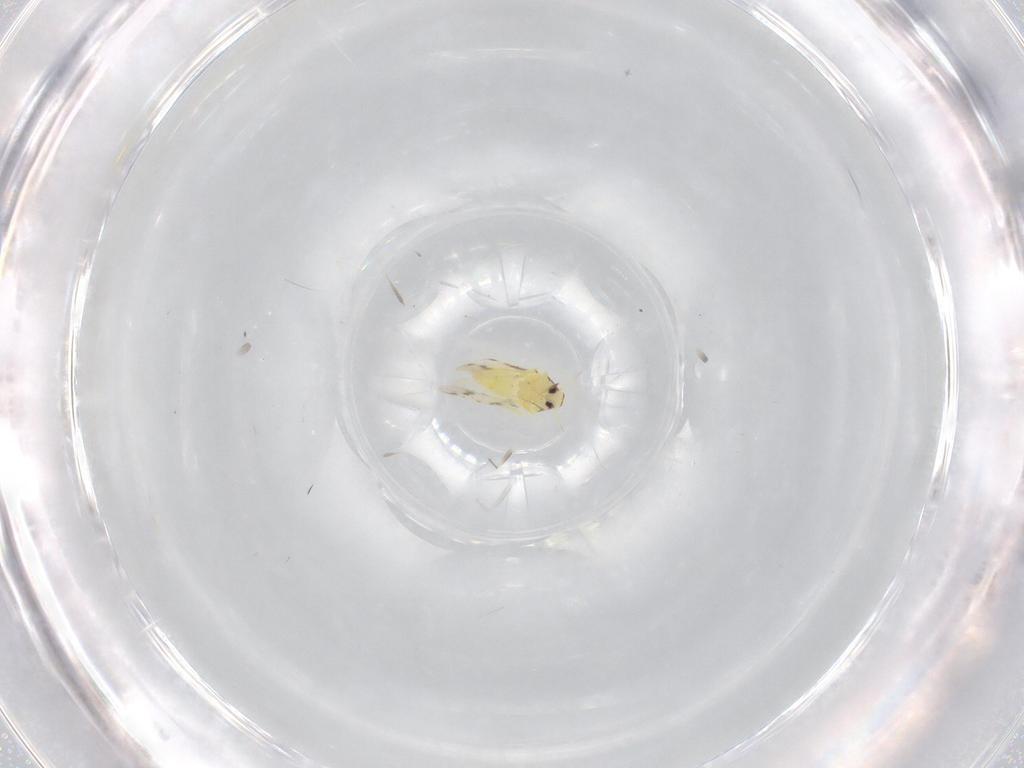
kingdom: Animalia
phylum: Arthropoda
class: Insecta
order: Hemiptera
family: Aleyrodidae
